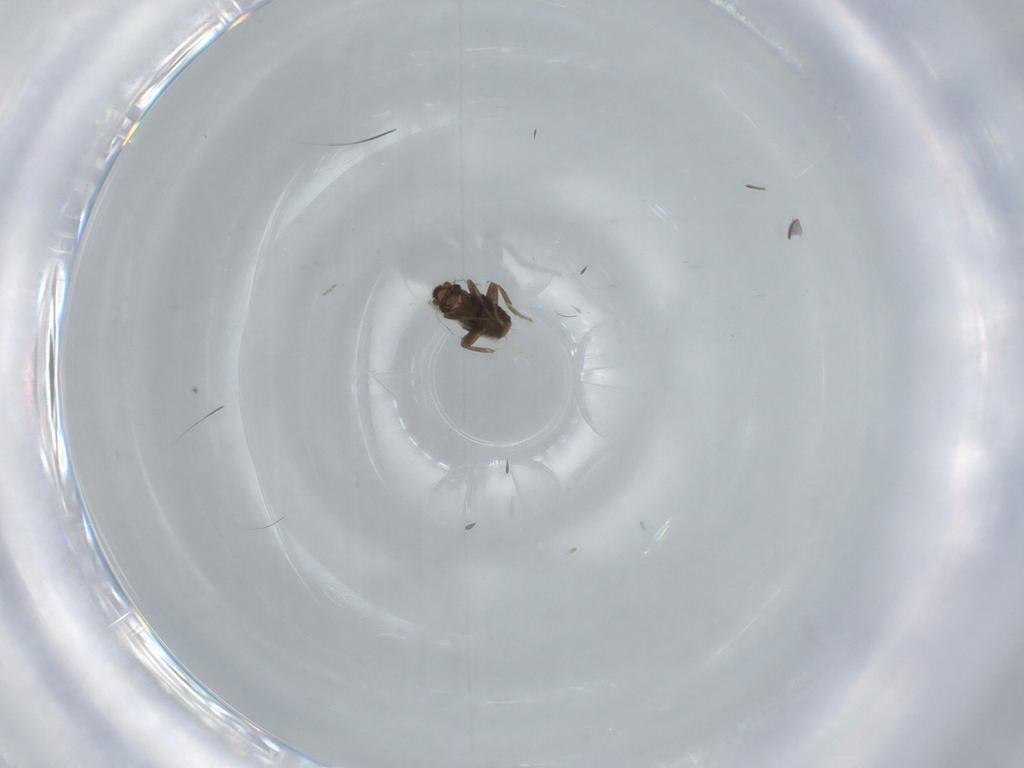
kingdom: Animalia
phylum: Arthropoda
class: Insecta
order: Diptera
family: Chironomidae
